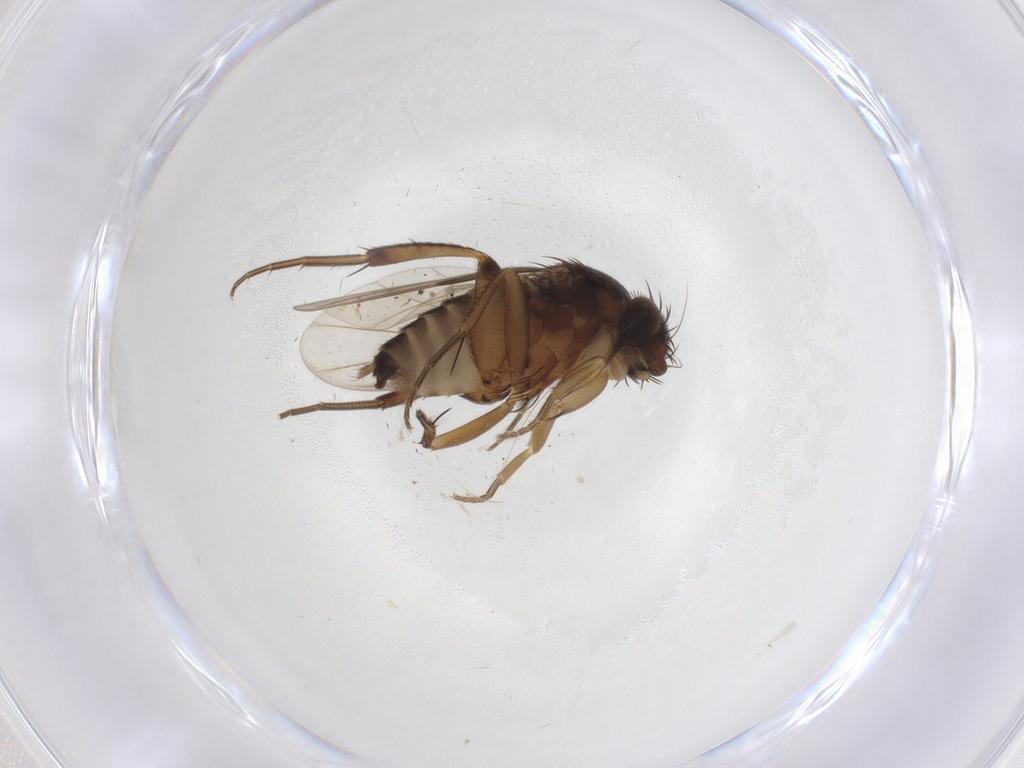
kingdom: Animalia
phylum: Arthropoda
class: Insecta
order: Diptera
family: Phoridae
